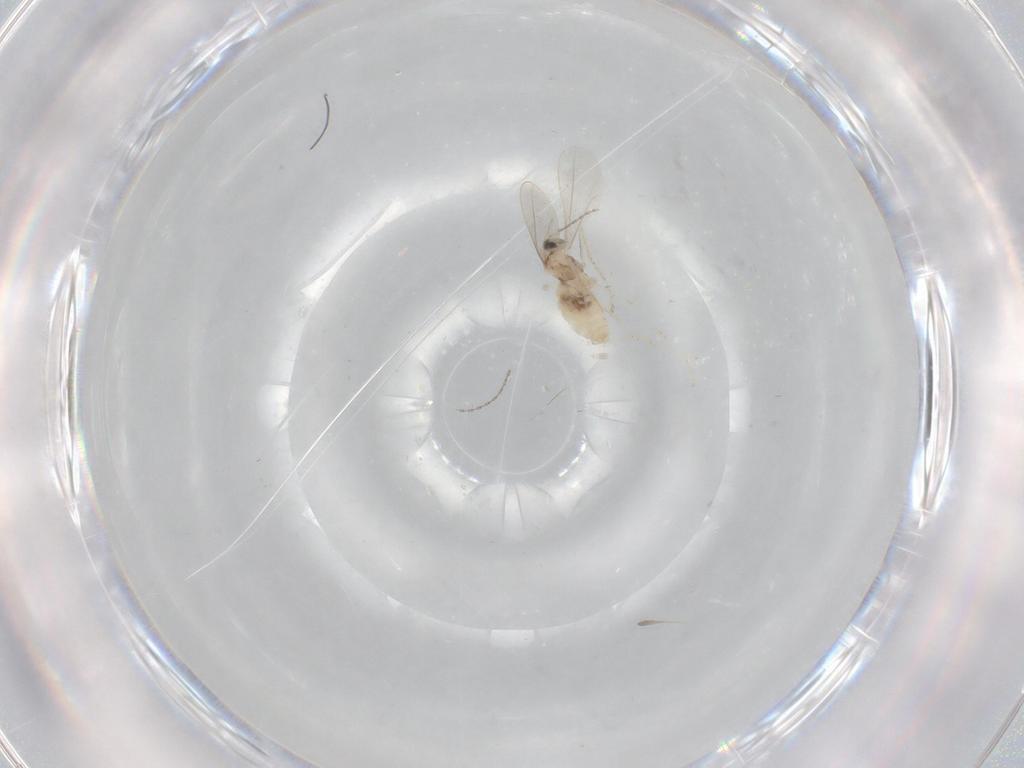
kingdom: Animalia
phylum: Arthropoda
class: Insecta
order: Diptera
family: Cecidomyiidae
